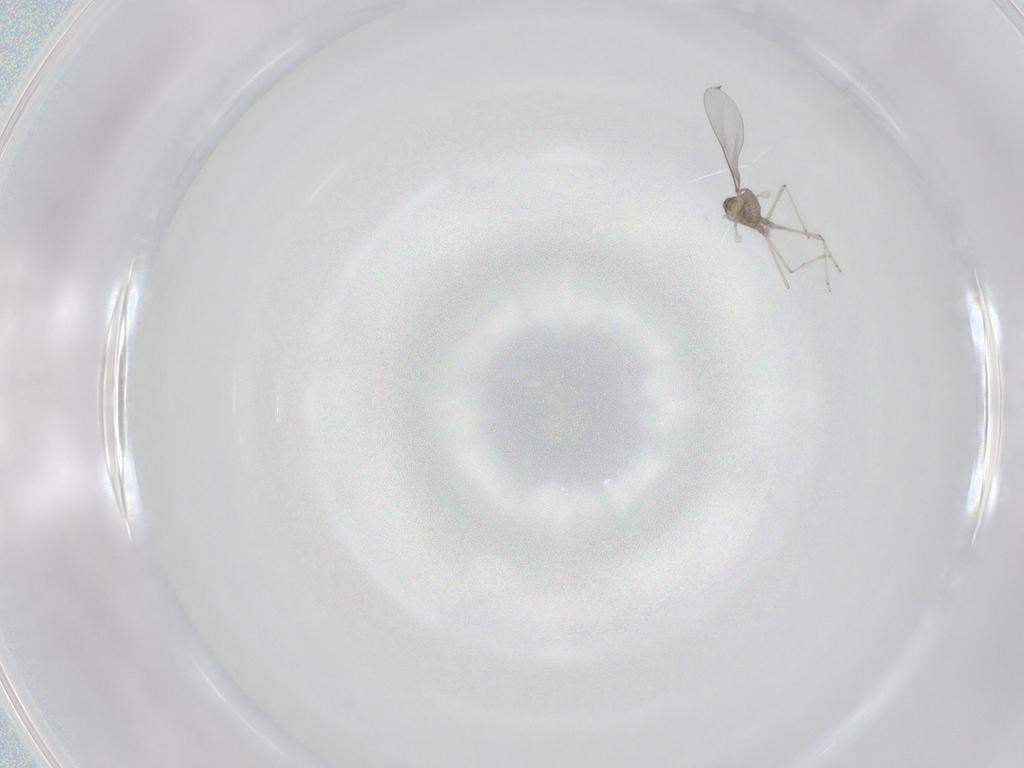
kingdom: Animalia
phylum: Arthropoda
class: Insecta
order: Diptera
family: Cecidomyiidae
